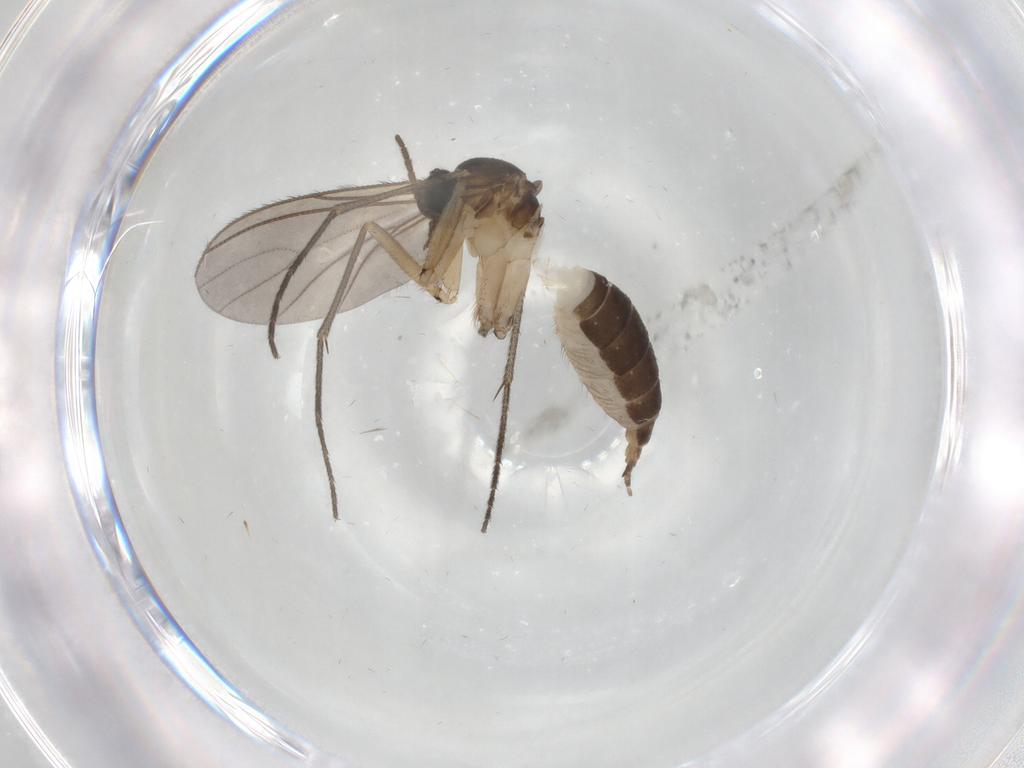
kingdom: Animalia
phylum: Arthropoda
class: Insecta
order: Diptera
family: Sciaridae
